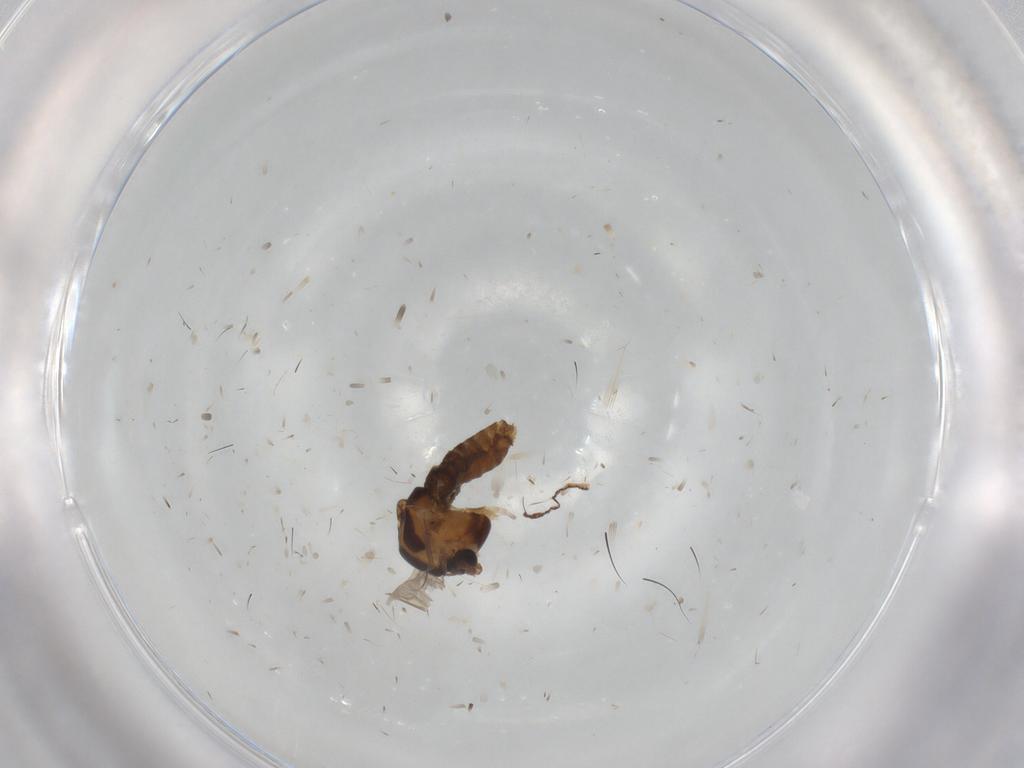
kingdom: Animalia
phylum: Arthropoda
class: Insecta
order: Diptera
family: Chironomidae
